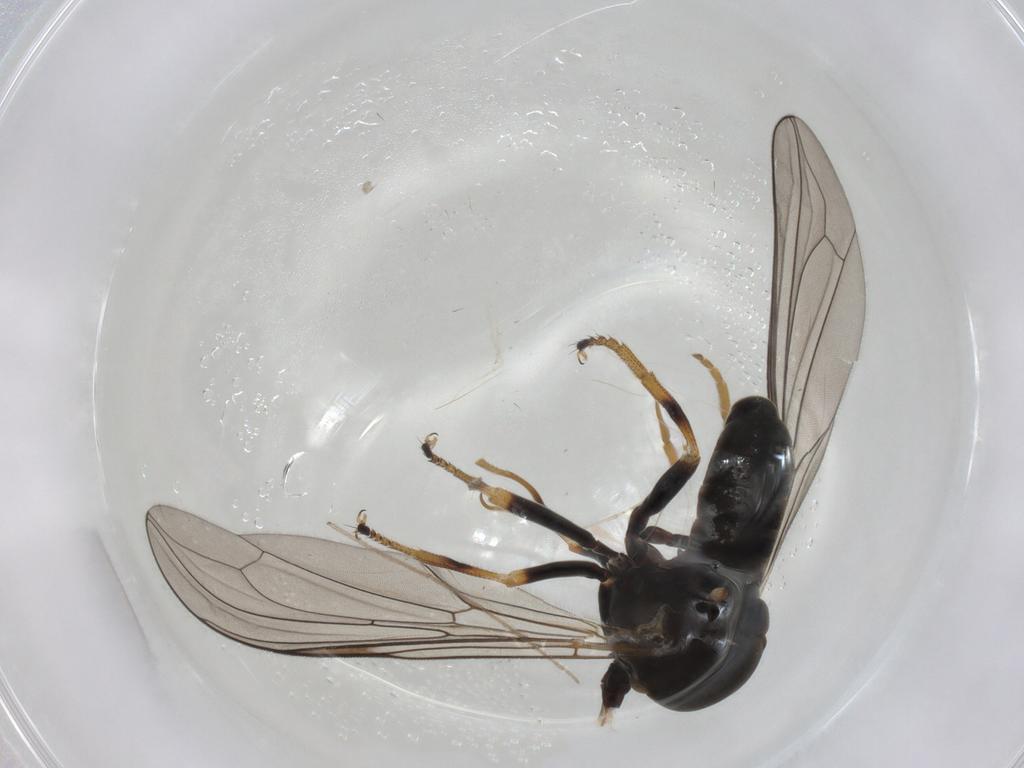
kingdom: Animalia
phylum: Arthropoda
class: Insecta
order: Diptera
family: Pipunculidae
